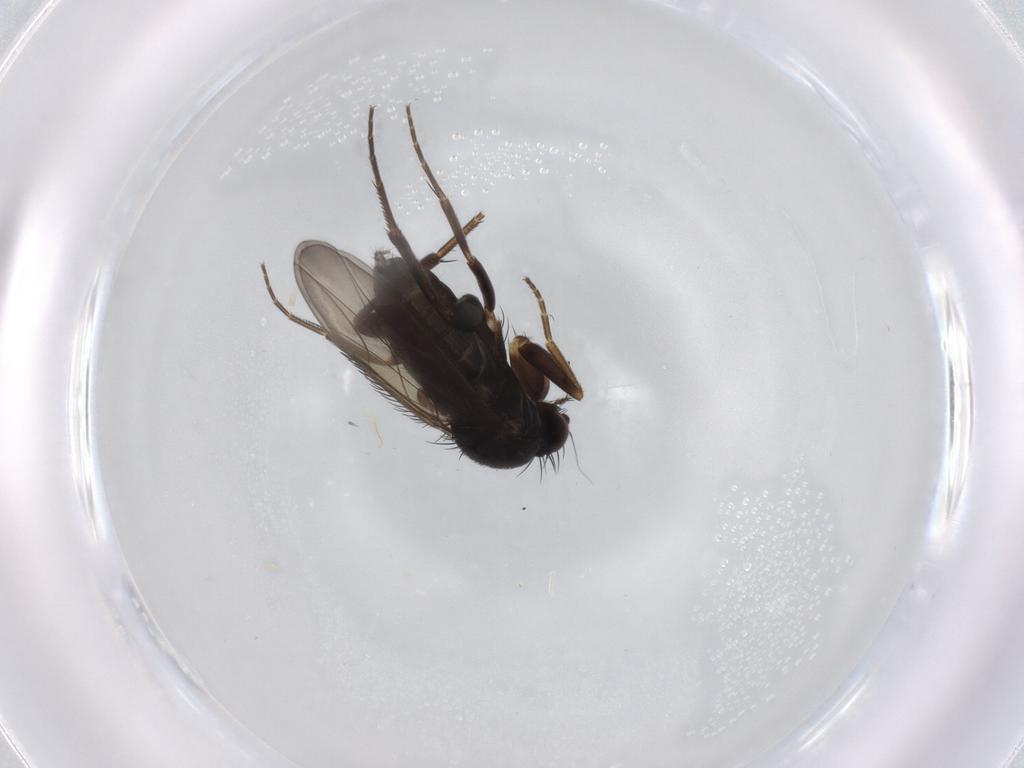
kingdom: Animalia
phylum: Arthropoda
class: Insecta
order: Diptera
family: Phoridae
